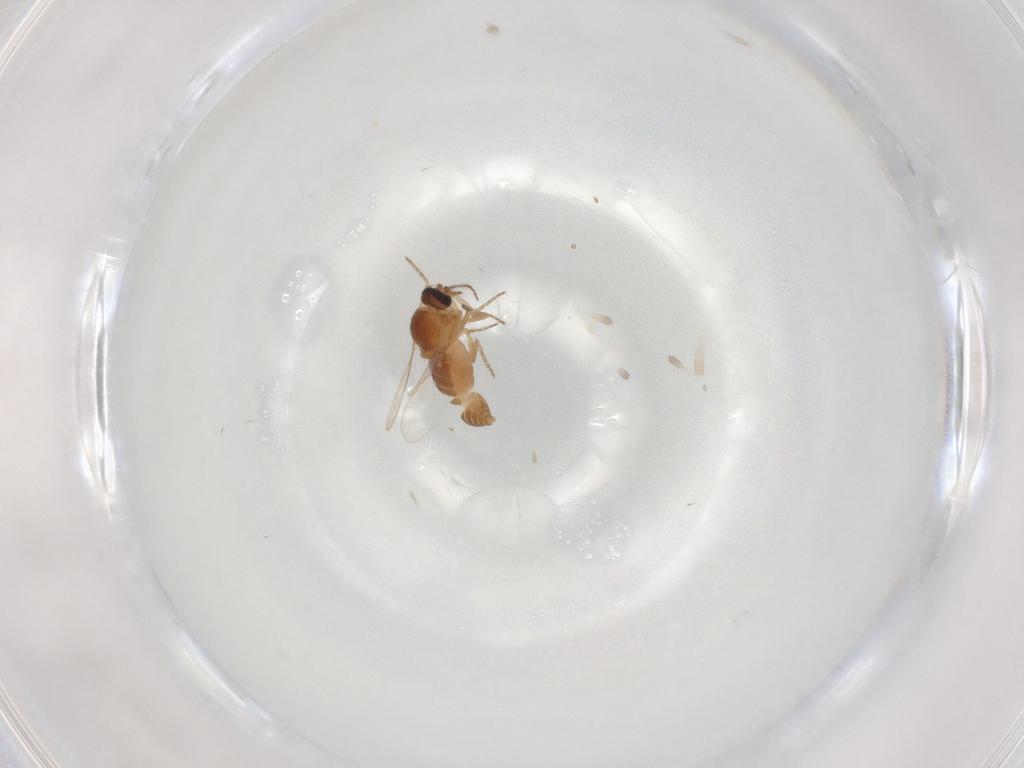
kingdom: Animalia
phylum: Arthropoda
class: Insecta
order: Diptera
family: Ceratopogonidae
